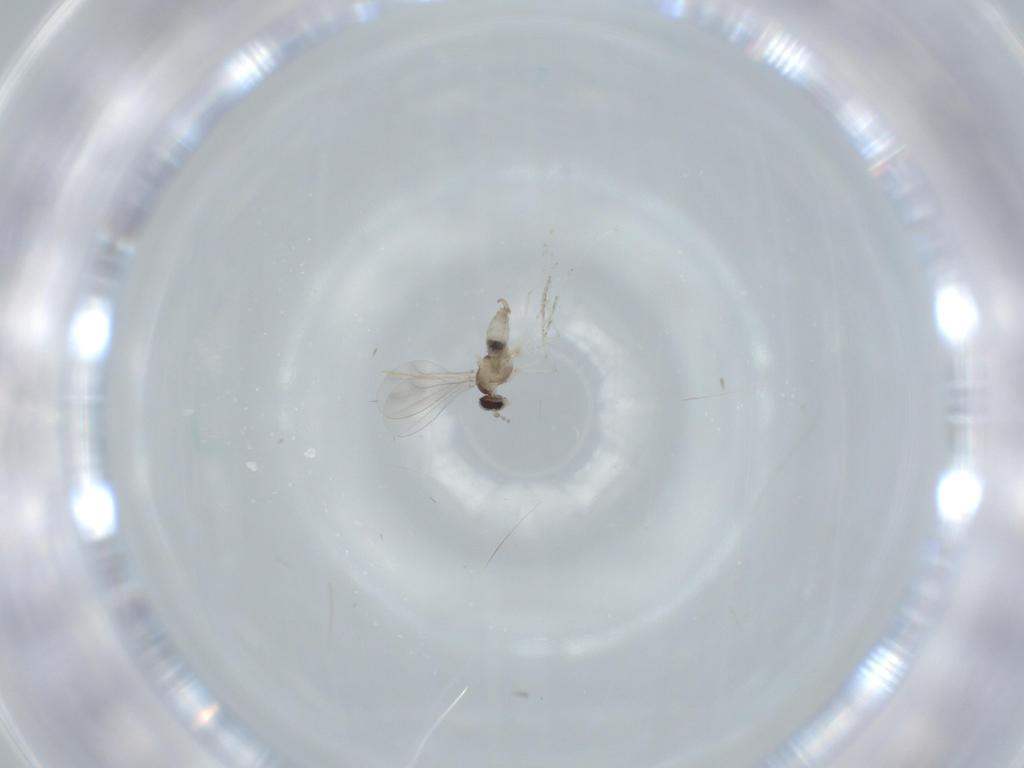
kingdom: Animalia
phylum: Arthropoda
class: Insecta
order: Diptera
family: Cecidomyiidae
